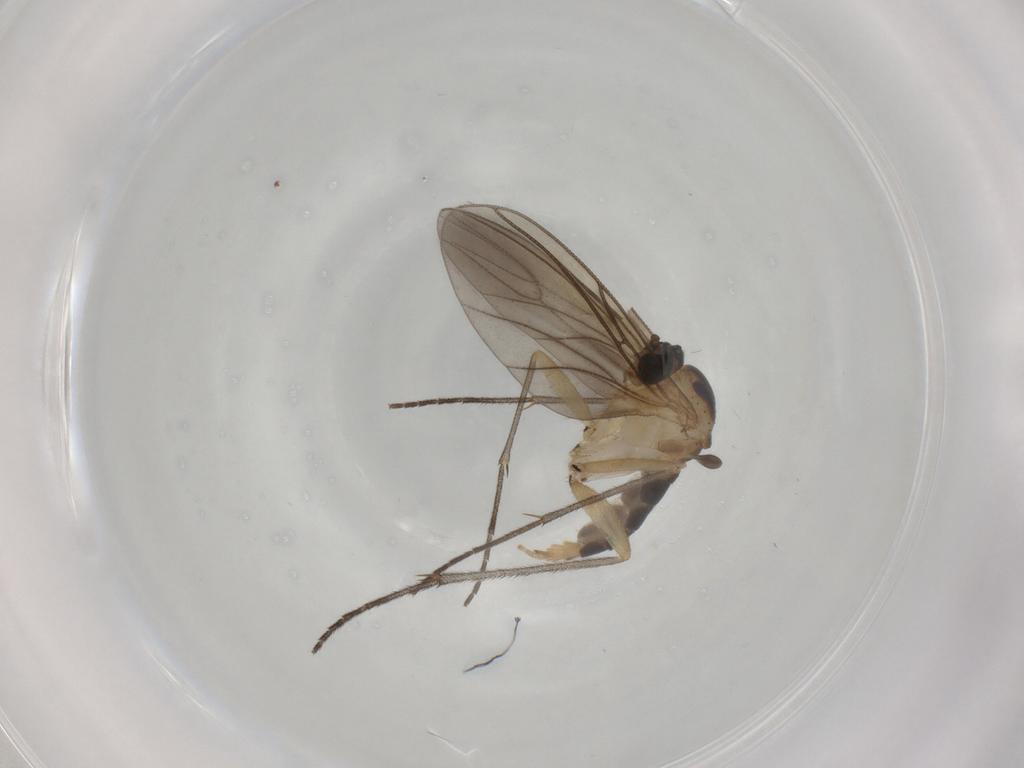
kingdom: Animalia
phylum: Arthropoda
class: Insecta
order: Diptera
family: Sciaridae
